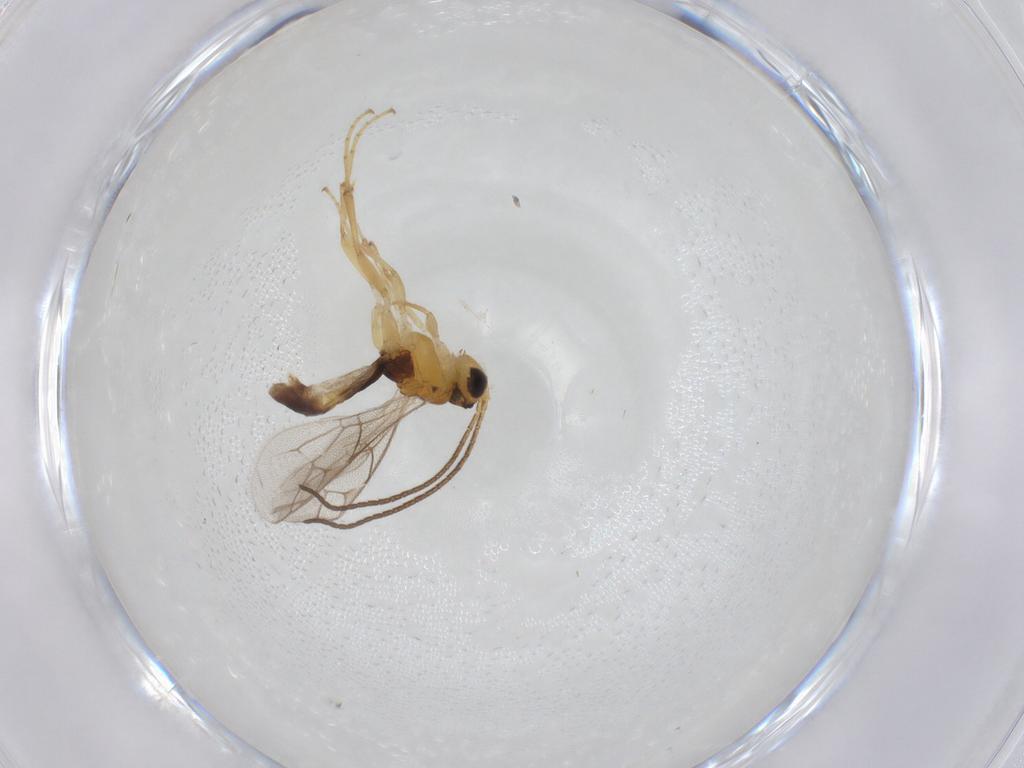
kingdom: Animalia
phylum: Arthropoda
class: Insecta
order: Hymenoptera
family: Ichneumonidae
